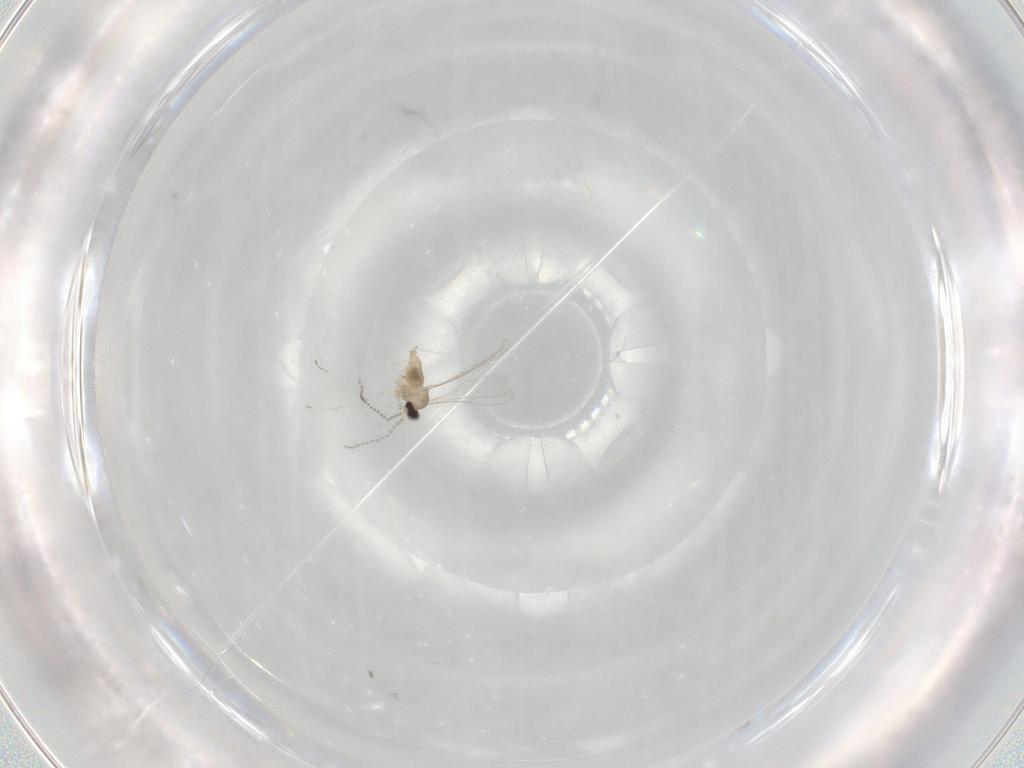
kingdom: Animalia
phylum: Arthropoda
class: Insecta
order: Diptera
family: Cecidomyiidae
